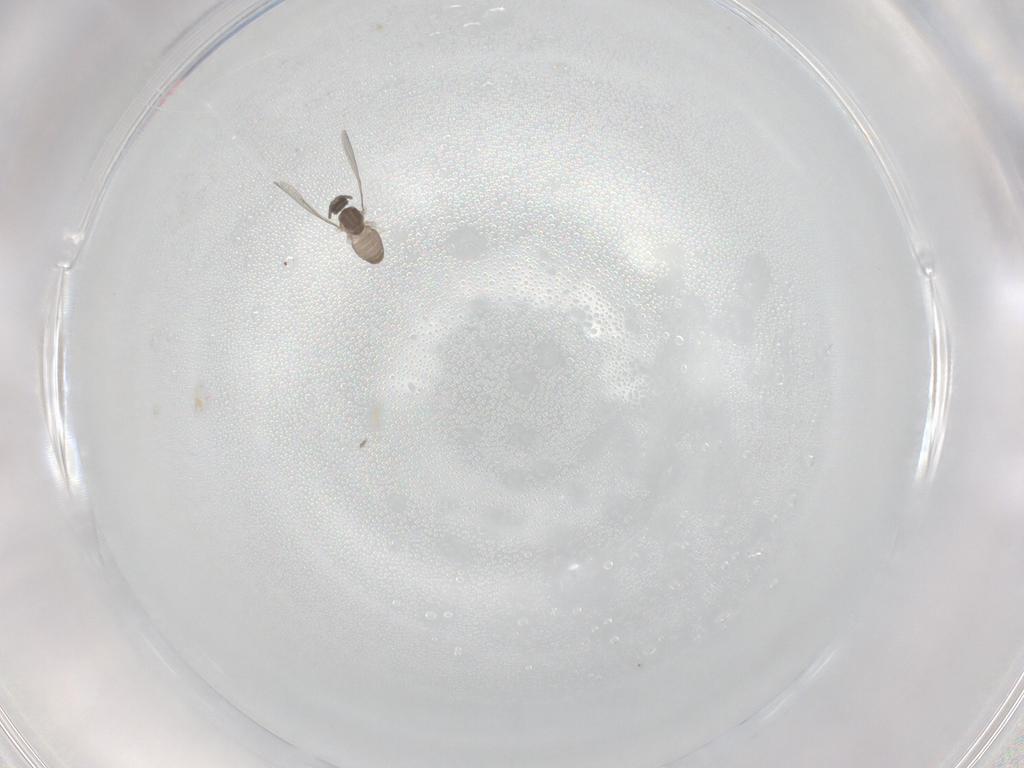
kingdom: Animalia
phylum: Arthropoda
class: Insecta
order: Diptera
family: Cecidomyiidae
